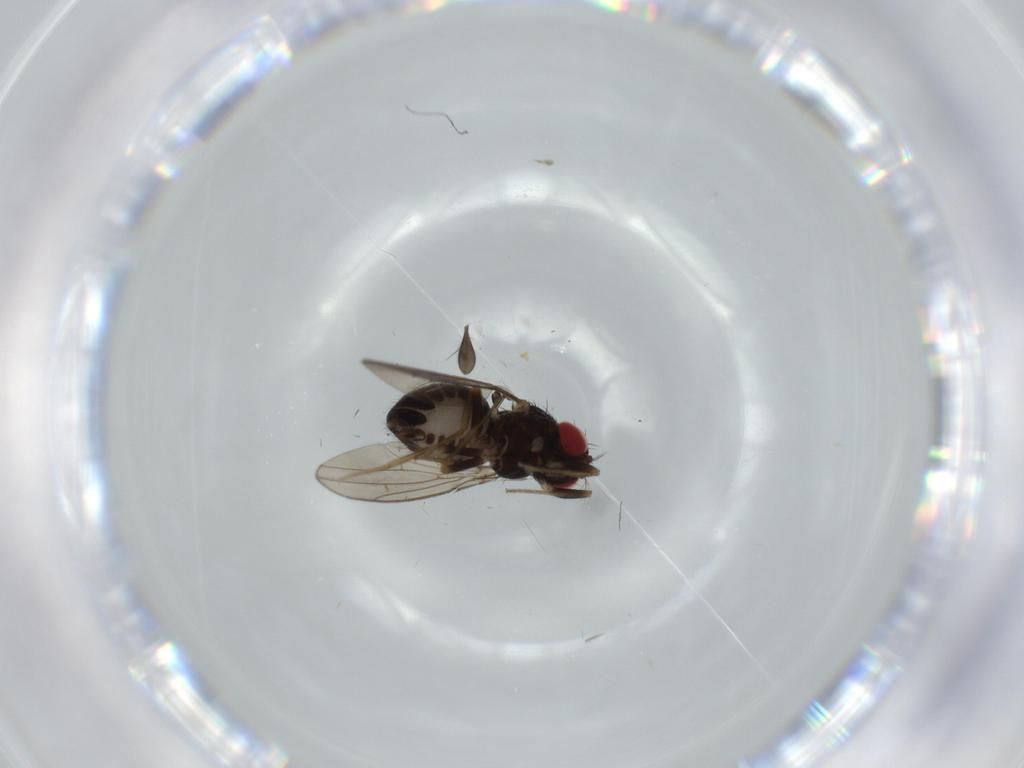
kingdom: Animalia
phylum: Arthropoda
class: Insecta
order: Diptera
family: Drosophilidae
